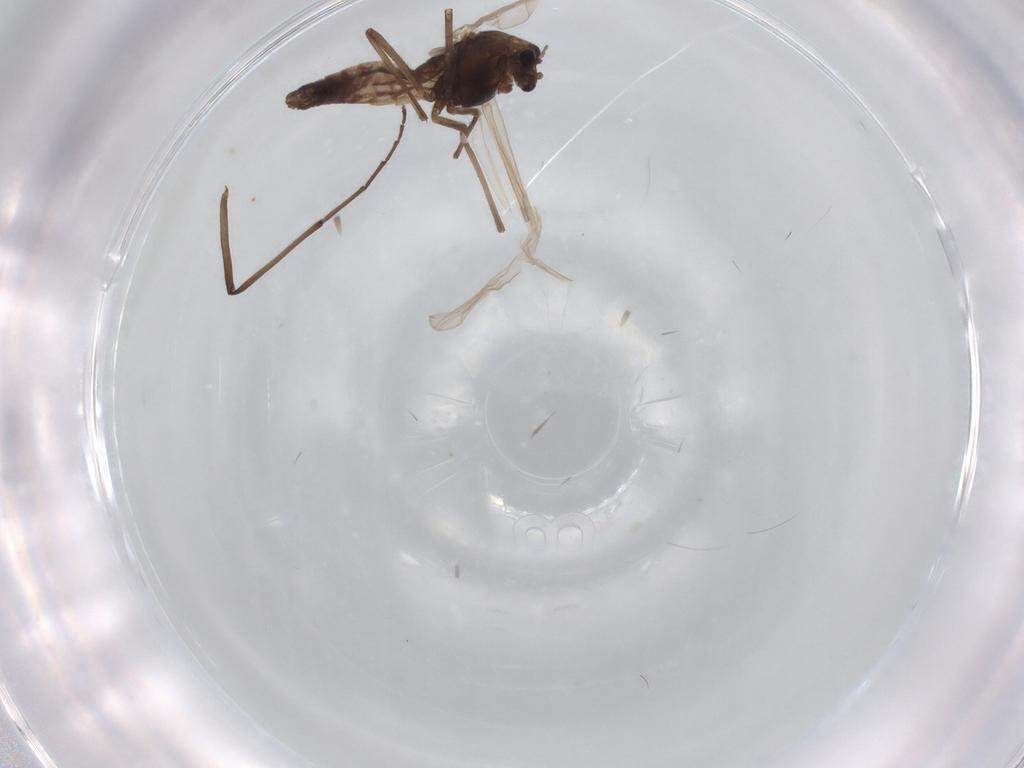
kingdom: Animalia
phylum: Arthropoda
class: Insecta
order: Diptera
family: Chironomidae
